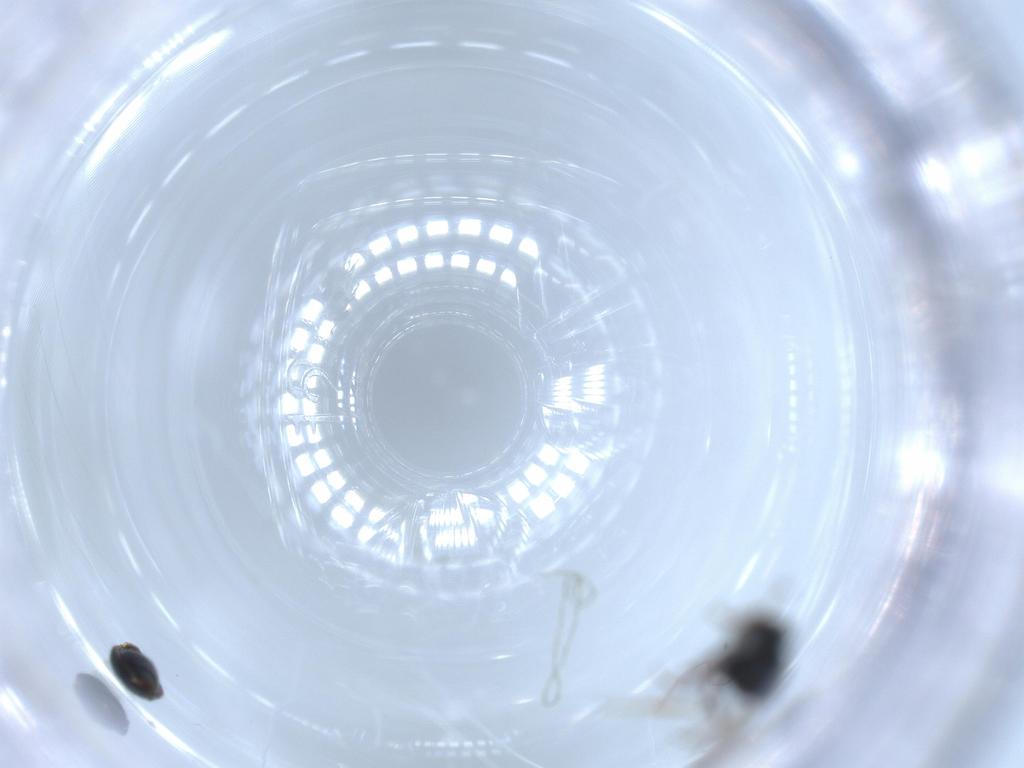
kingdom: Animalia
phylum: Arthropoda
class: Insecta
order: Hymenoptera
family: Scelionidae
